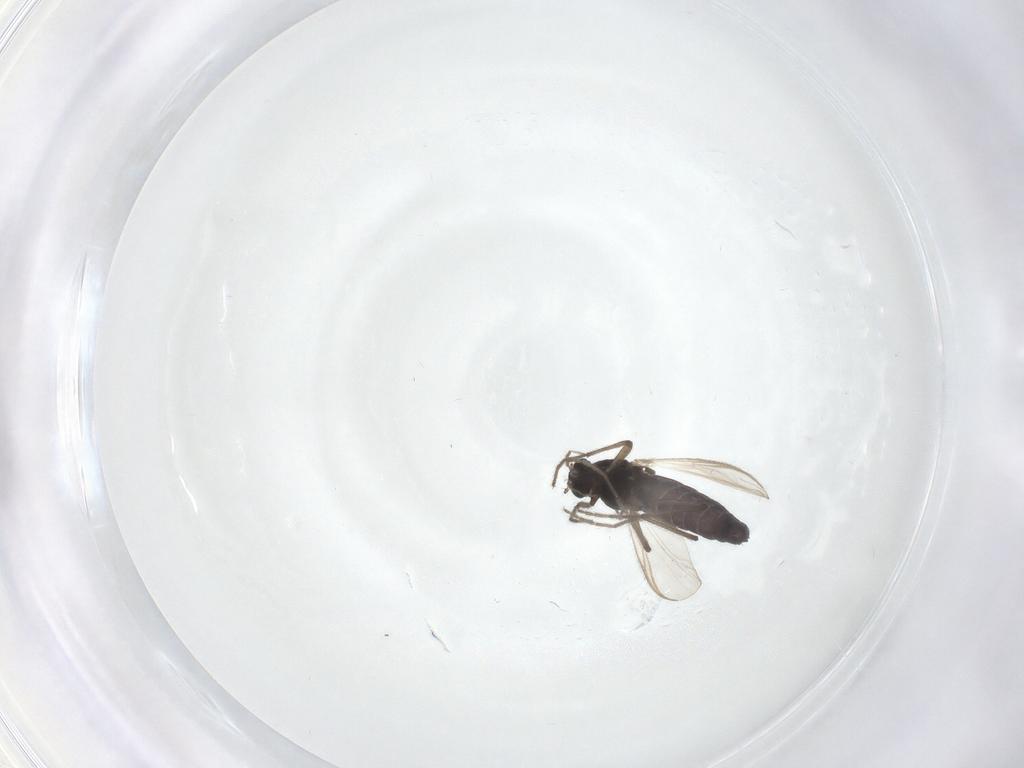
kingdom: Animalia
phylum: Arthropoda
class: Insecta
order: Diptera
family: Chironomidae
